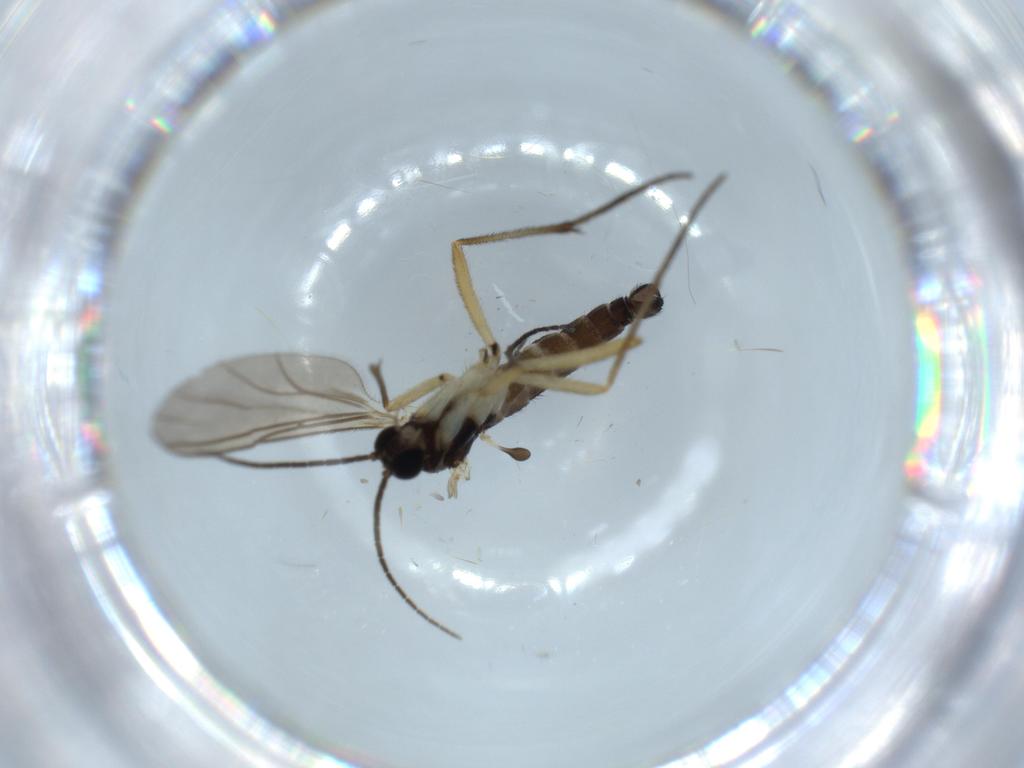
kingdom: Animalia
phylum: Arthropoda
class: Insecta
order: Diptera
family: Sciaridae
